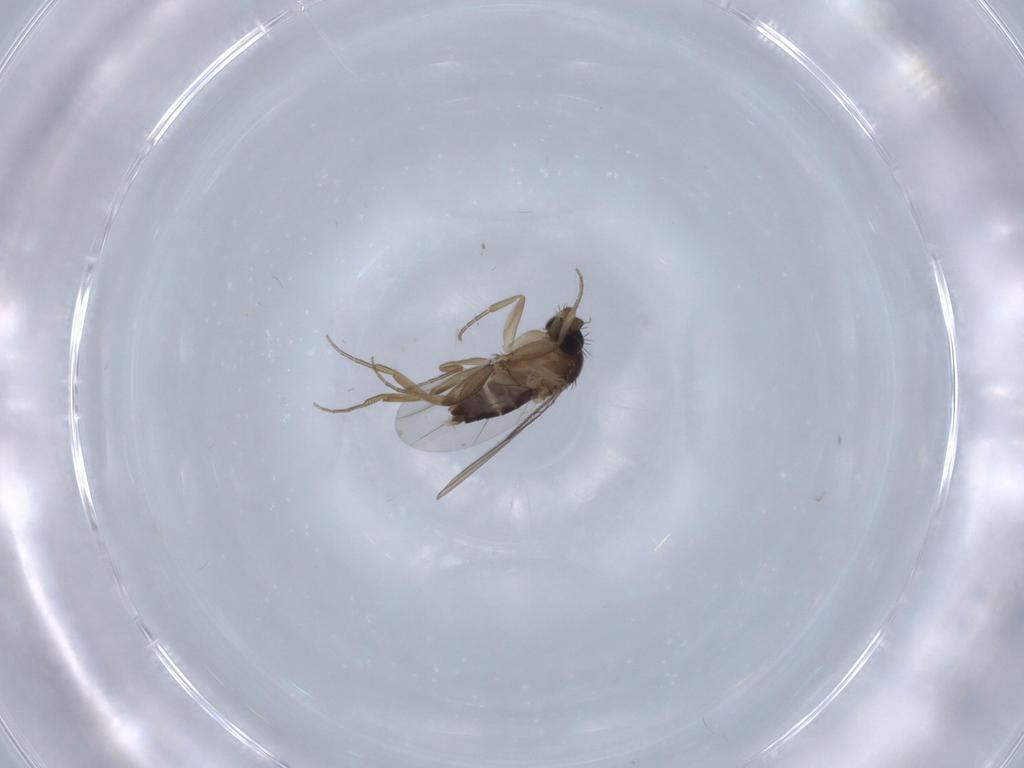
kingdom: Animalia
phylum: Arthropoda
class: Insecta
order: Diptera
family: Phoridae
